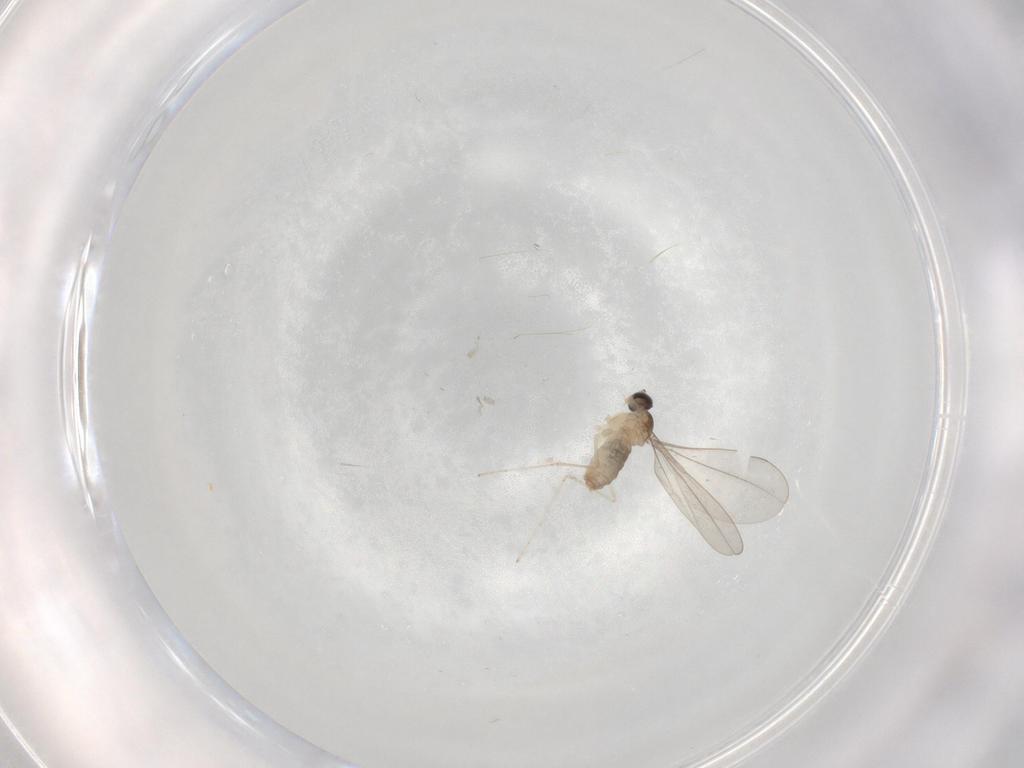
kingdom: Animalia
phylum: Arthropoda
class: Insecta
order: Diptera
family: Cecidomyiidae
